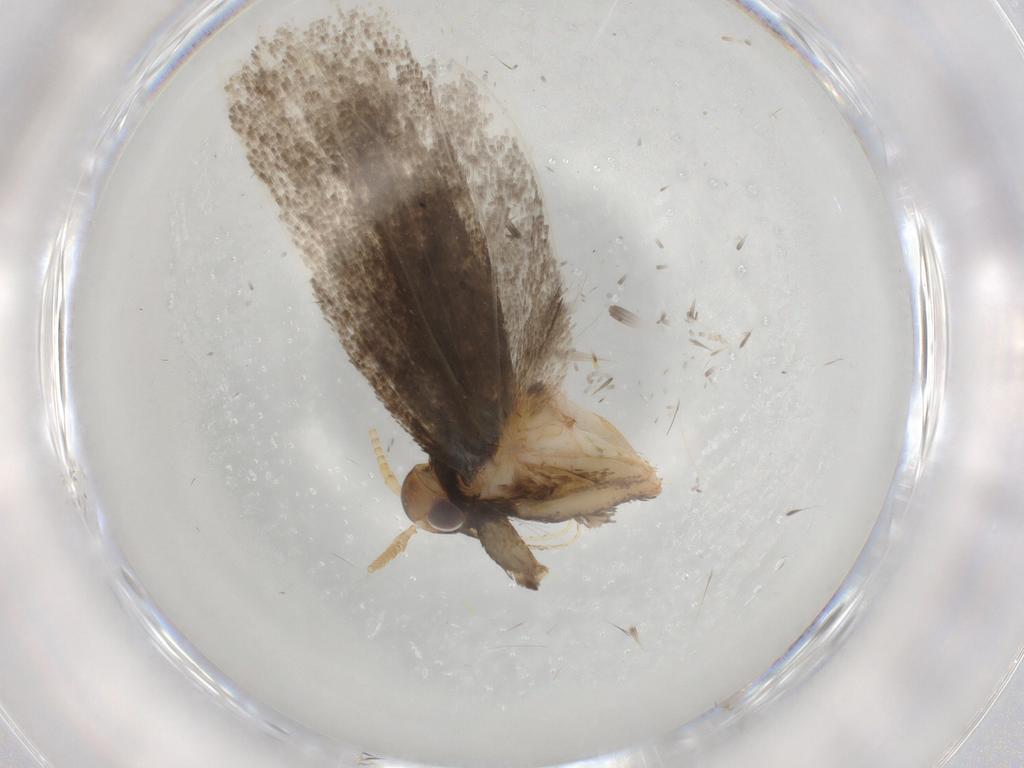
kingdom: Animalia
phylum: Arthropoda
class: Insecta
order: Lepidoptera
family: Lecithoceridae
